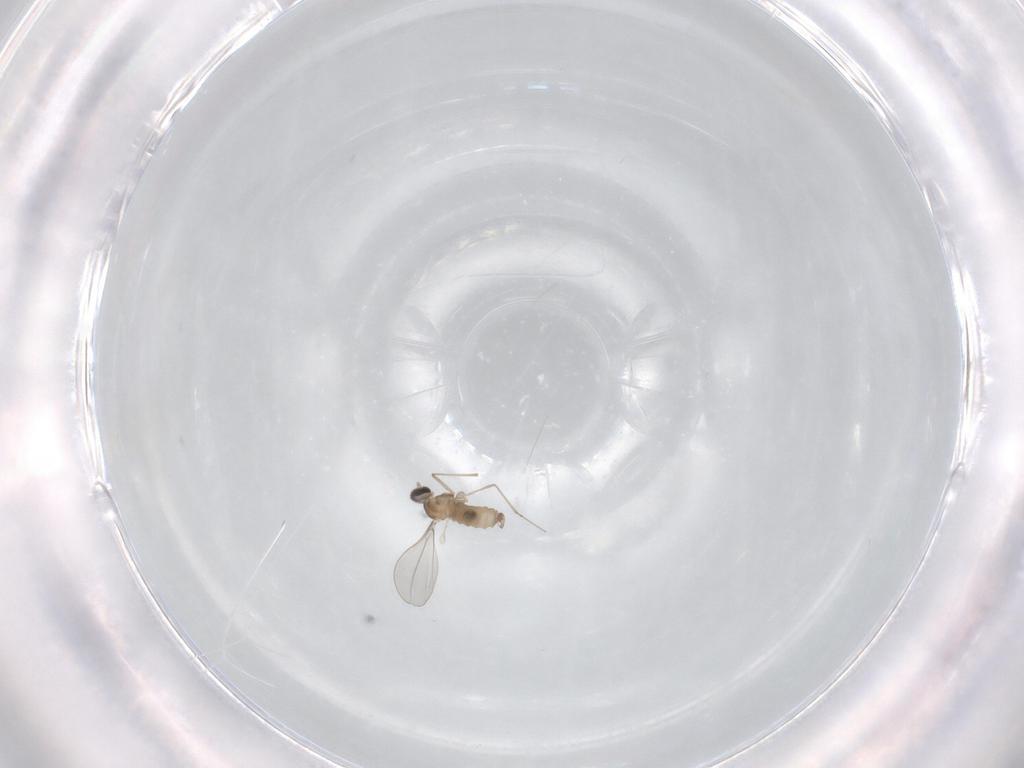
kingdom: Animalia
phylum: Arthropoda
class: Insecta
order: Diptera
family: Cecidomyiidae
